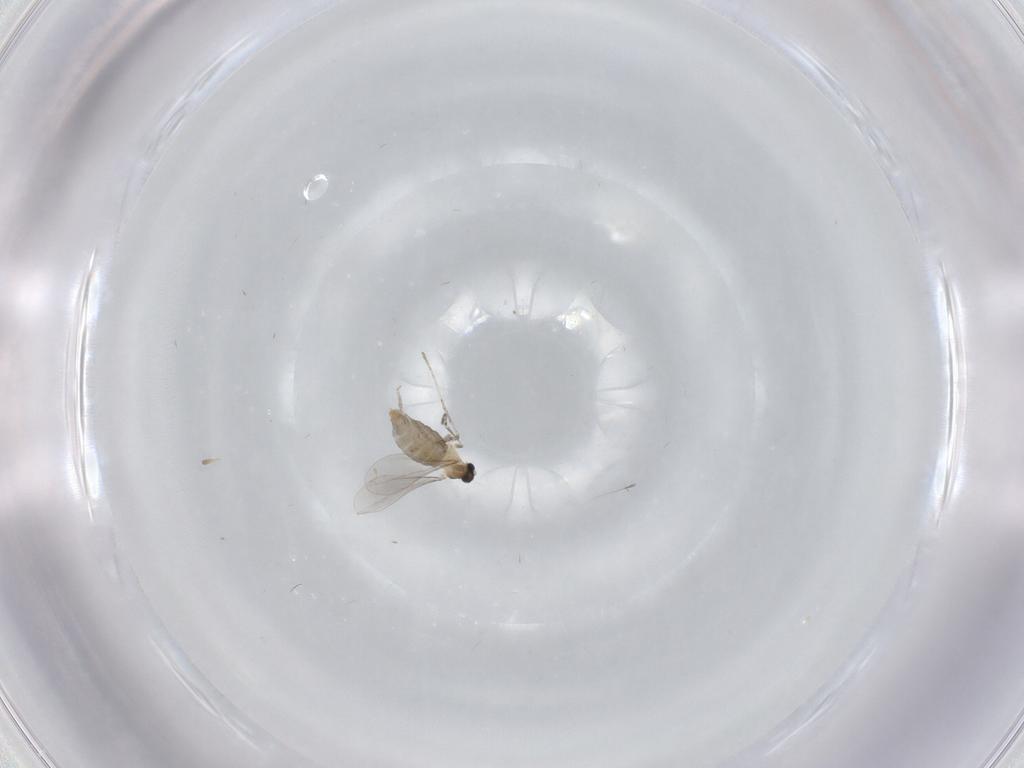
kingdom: Animalia
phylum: Arthropoda
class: Insecta
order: Diptera
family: Cecidomyiidae
